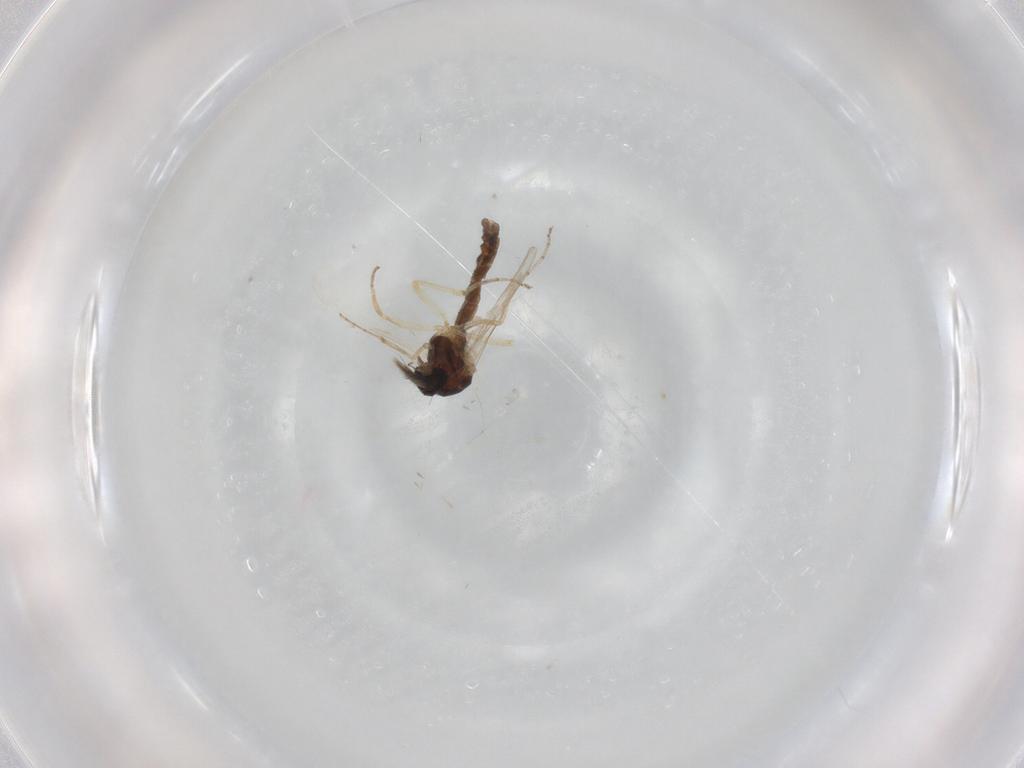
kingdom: Animalia
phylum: Arthropoda
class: Insecta
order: Diptera
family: Ceratopogonidae
